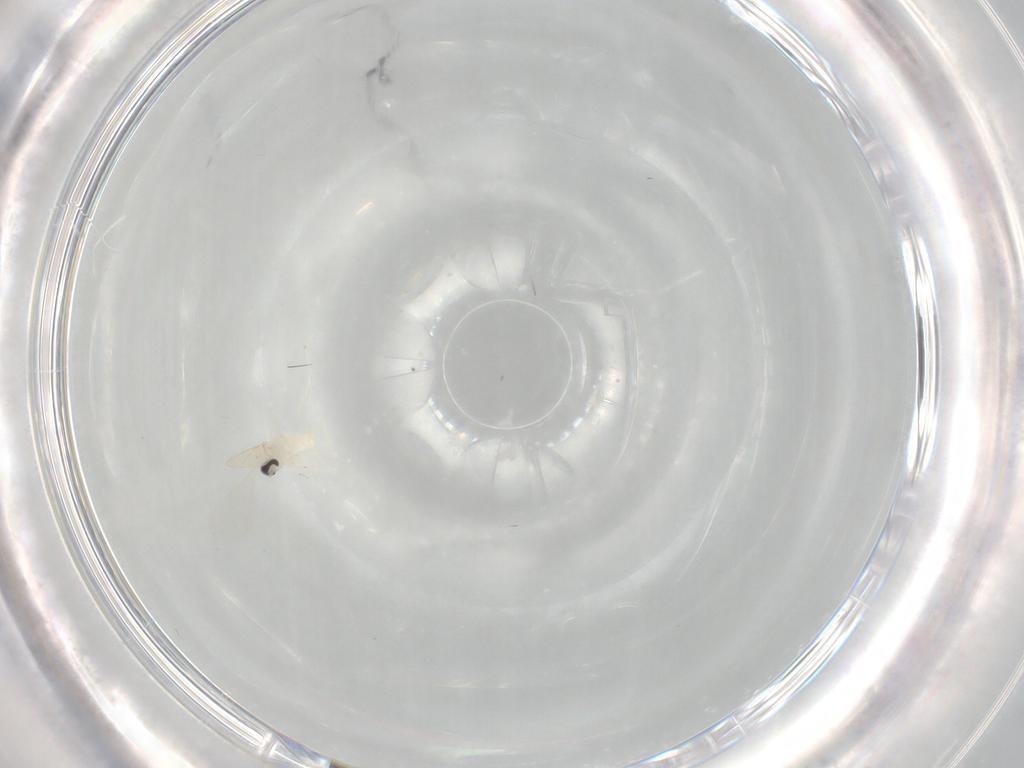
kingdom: Animalia
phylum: Arthropoda
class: Insecta
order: Diptera
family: Cecidomyiidae
